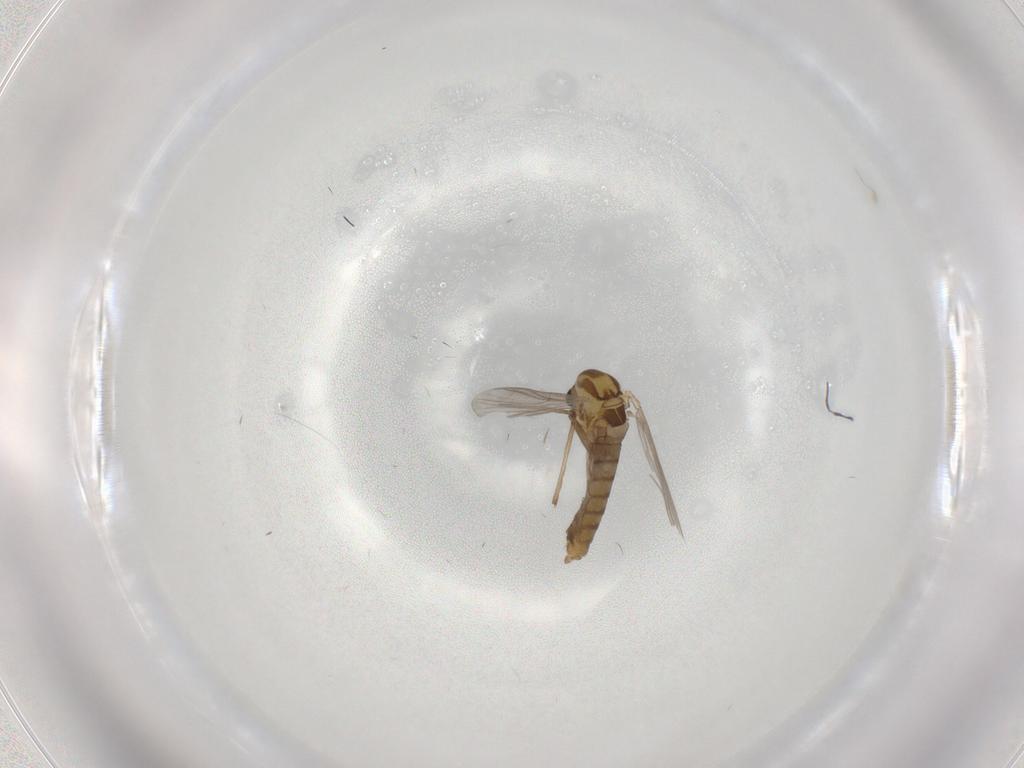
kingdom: Animalia
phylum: Arthropoda
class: Insecta
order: Diptera
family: Chironomidae
